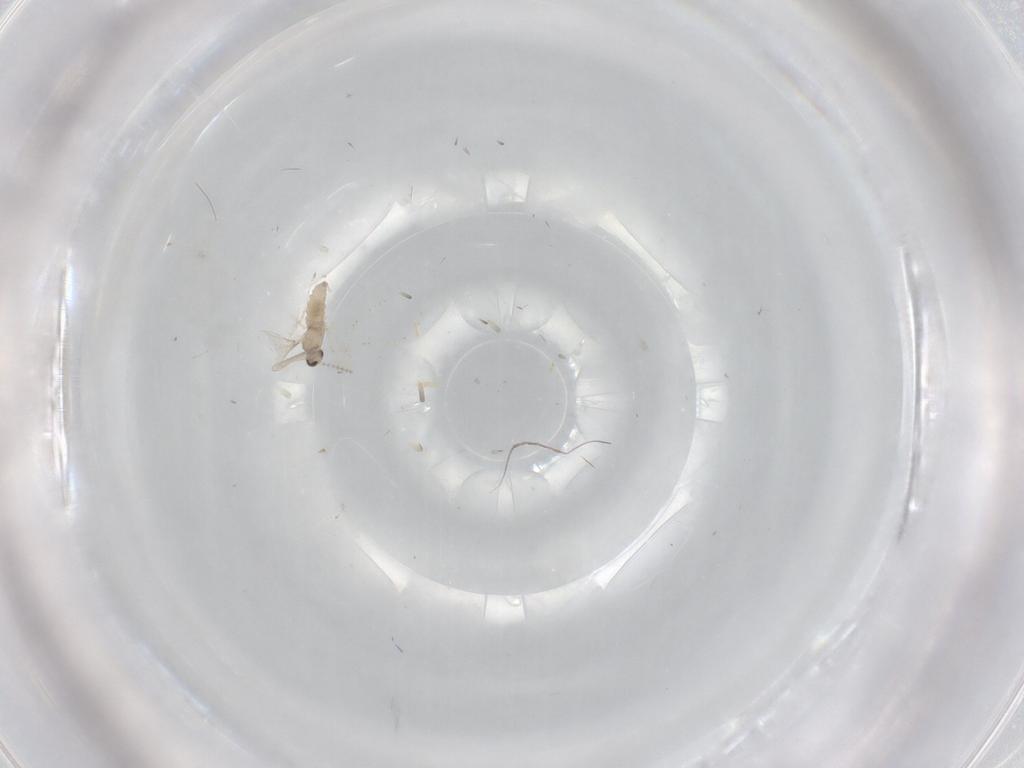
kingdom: Animalia
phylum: Arthropoda
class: Insecta
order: Diptera
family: Cecidomyiidae
